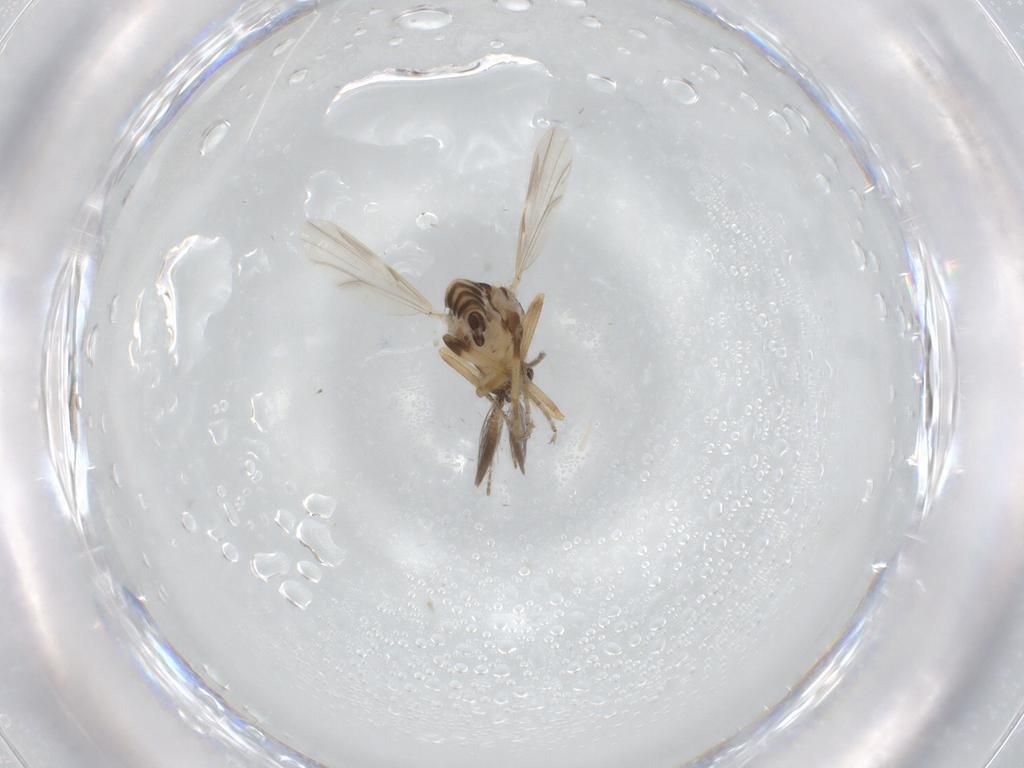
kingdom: Animalia
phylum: Arthropoda
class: Insecta
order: Diptera
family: Ceratopogonidae
